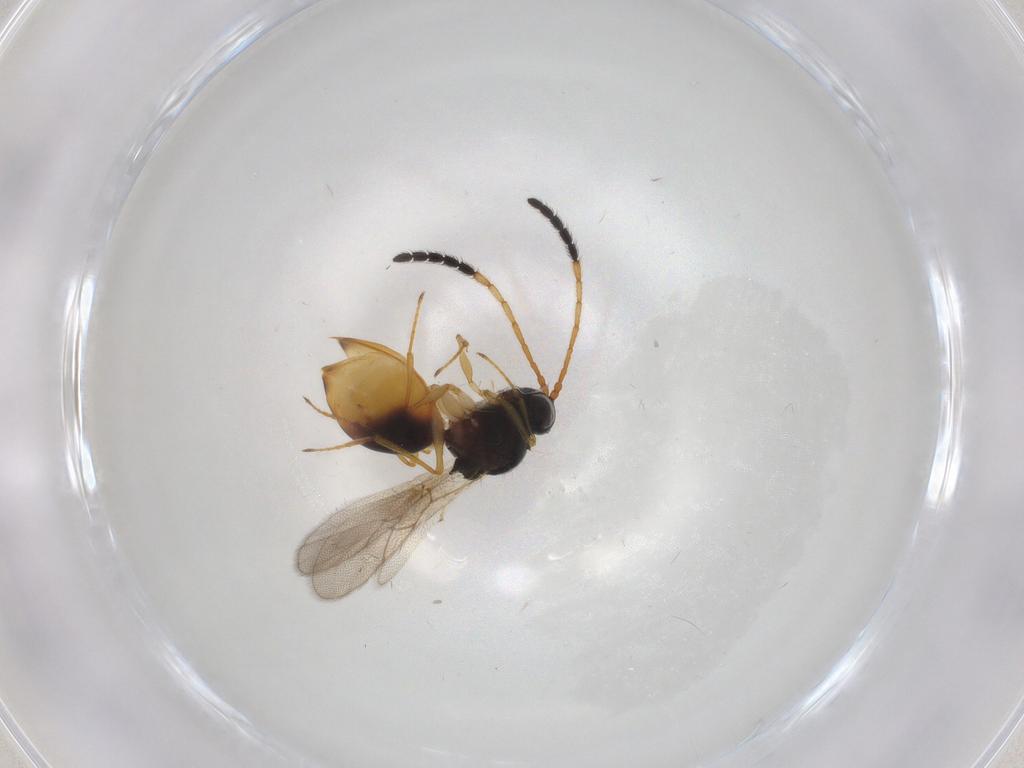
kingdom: Animalia
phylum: Arthropoda
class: Insecta
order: Hymenoptera
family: Figitidae
